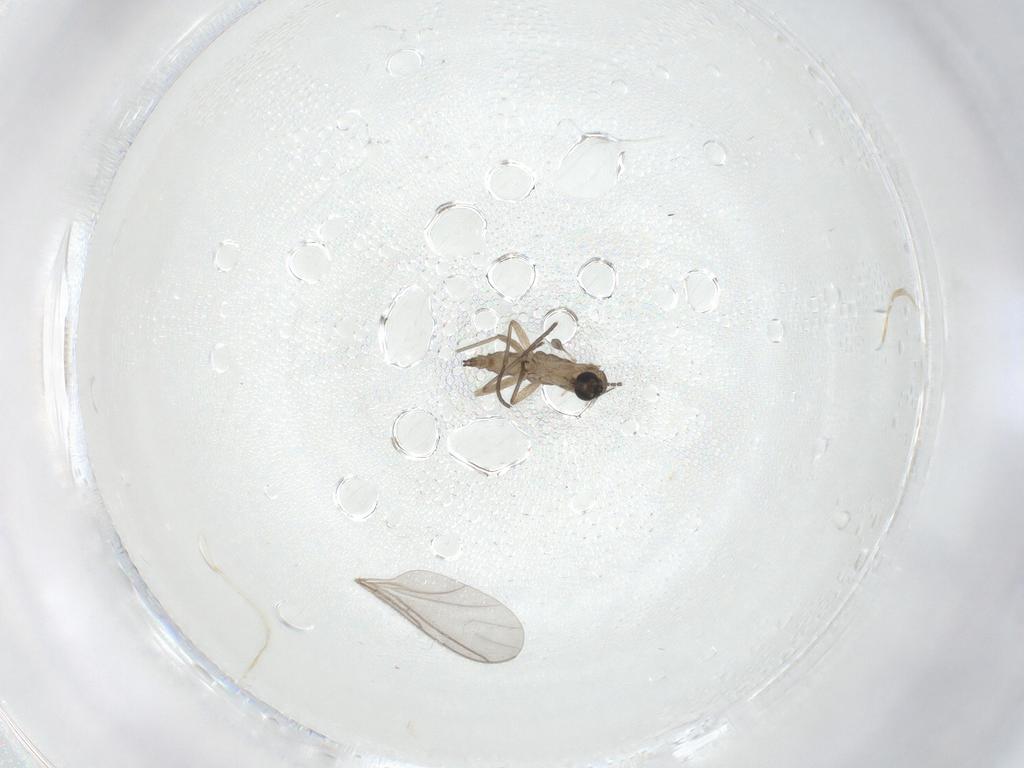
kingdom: Animalia
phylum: Arthropoda
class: Insecta
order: Diptera
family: Sciaridae
